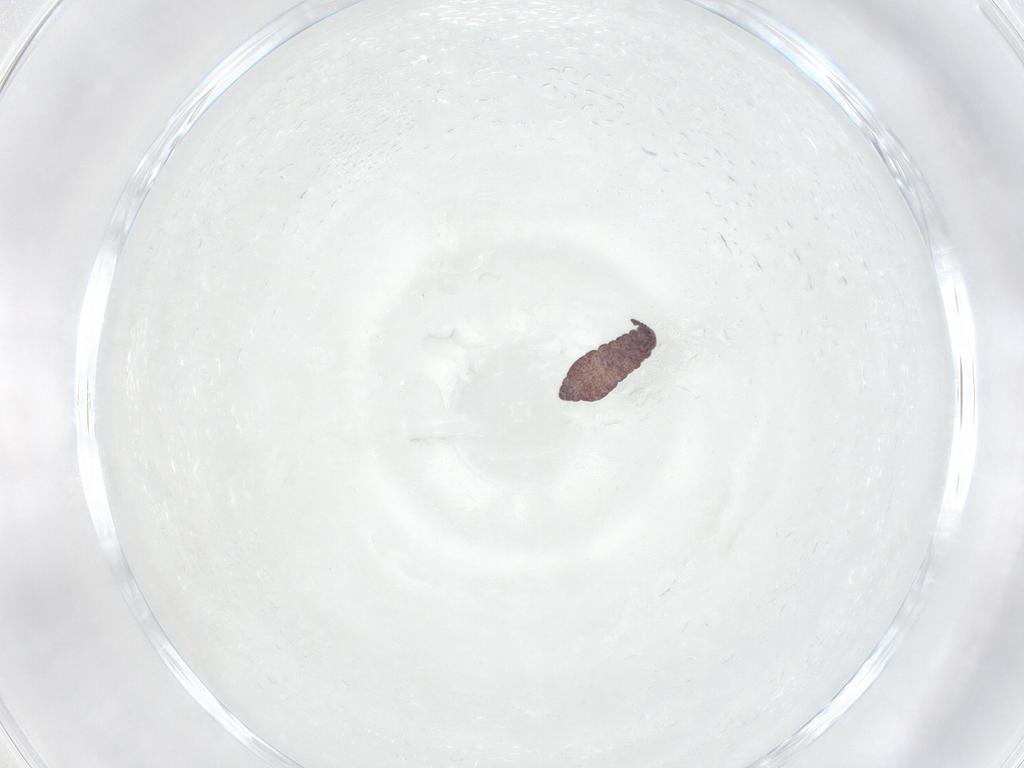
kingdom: Animalia
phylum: Arthropoda
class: Collembola
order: Poduromorpha
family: Hypogastruridae
